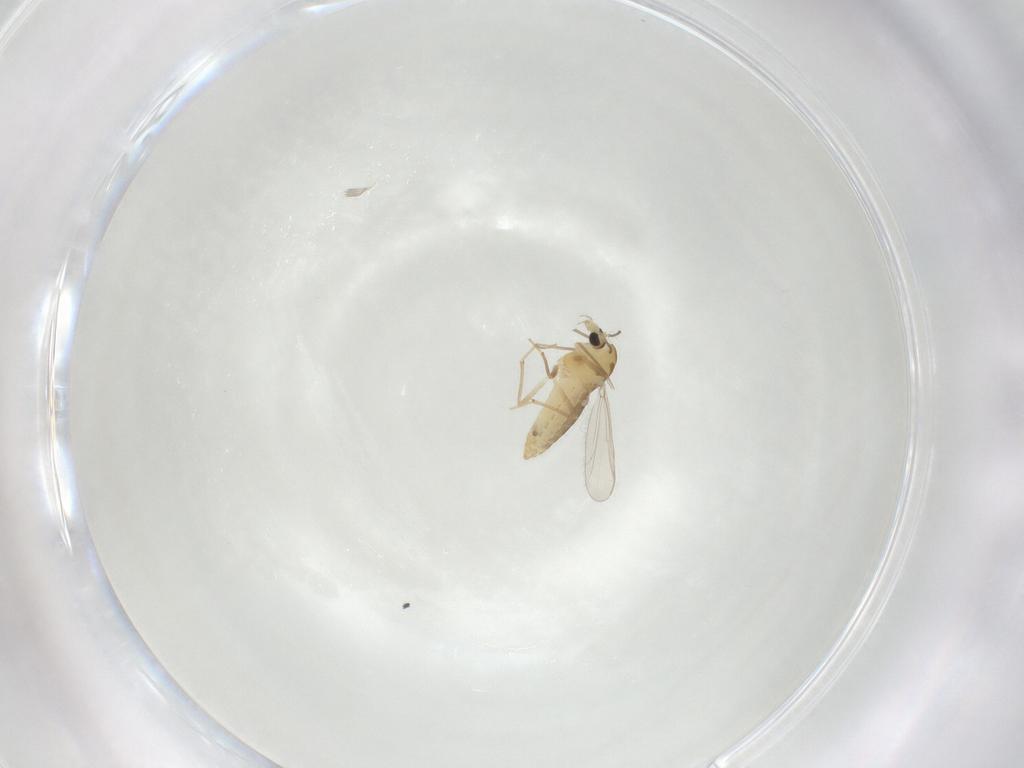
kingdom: Animalia
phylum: Arthropoda
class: Insecta
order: Diptera
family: Chironomidae
